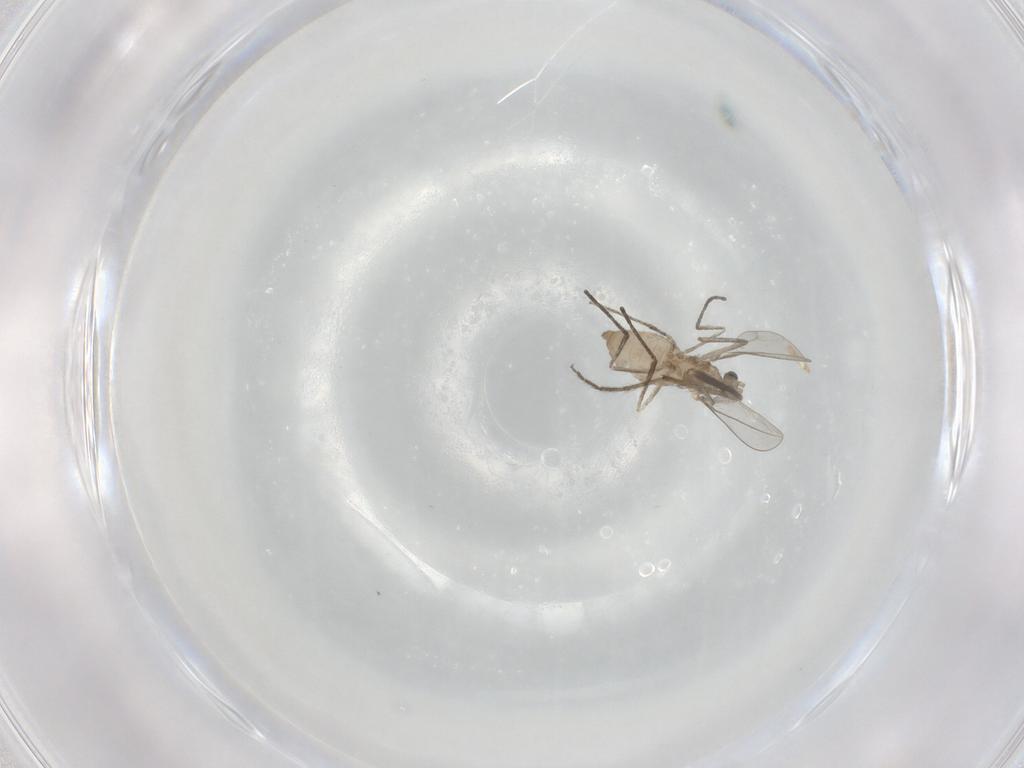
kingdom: Animalia
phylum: Arthropoda
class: Insecta
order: Diptera
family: Cecidomyiidae
